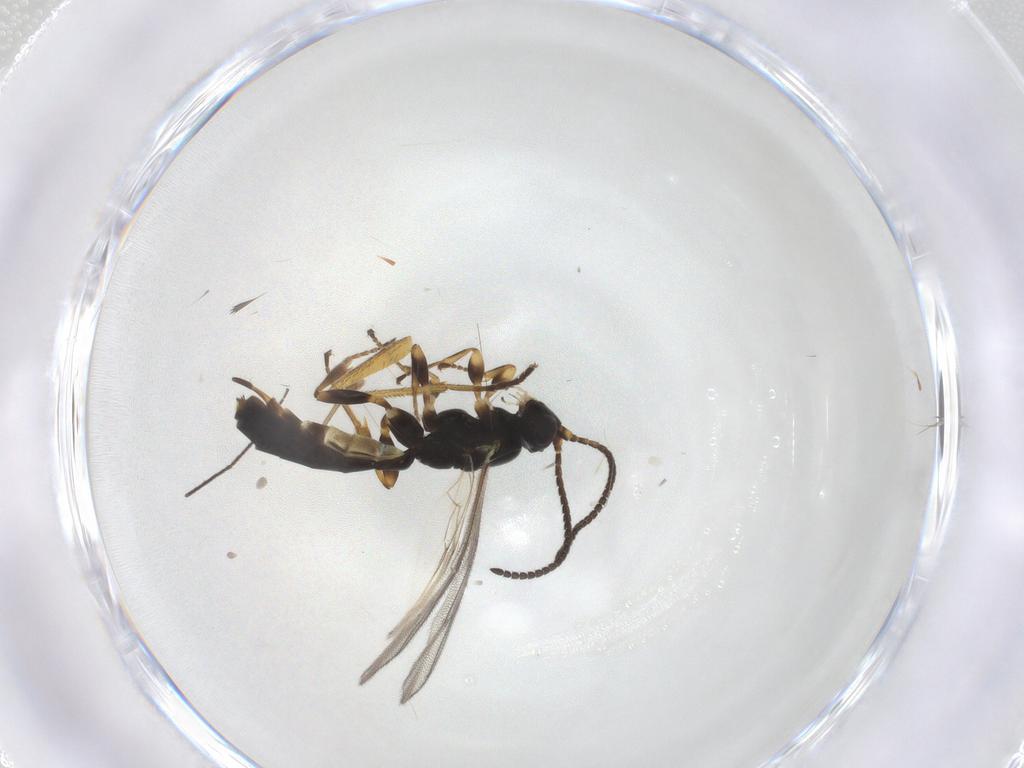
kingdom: Animalia
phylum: Arthropoda
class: Insecta
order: Hymenoptera
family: Ichneumonidae
